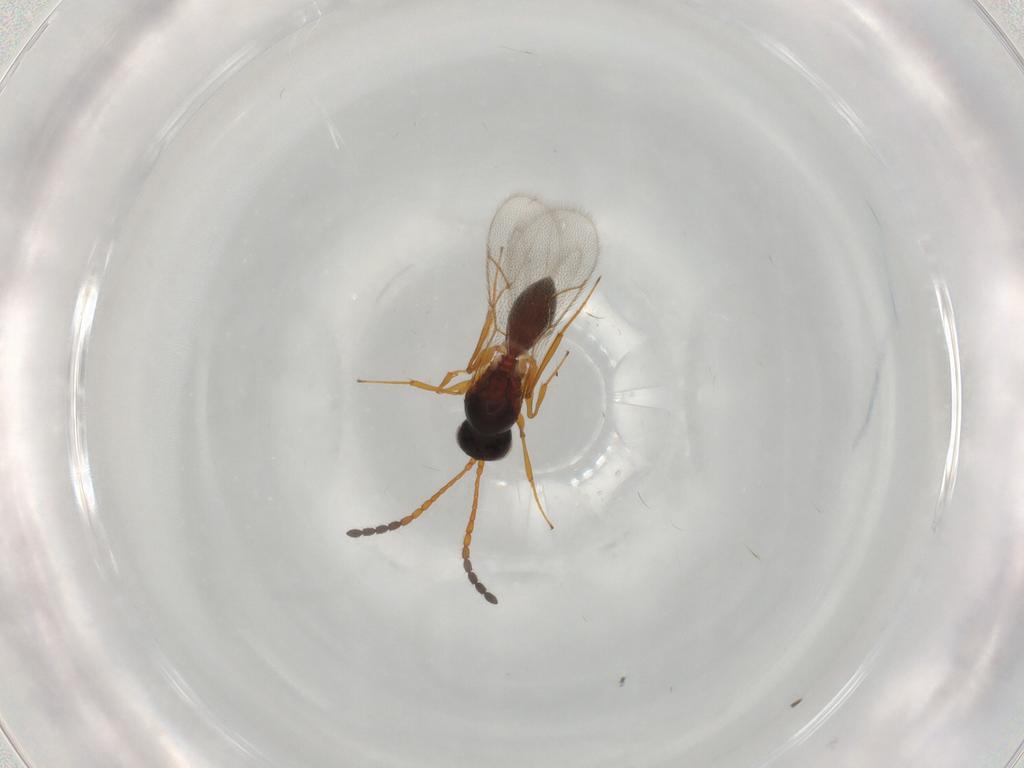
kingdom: Animalia
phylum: Arthropoda
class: Insecta
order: Hymenoptera
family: Figitidae
